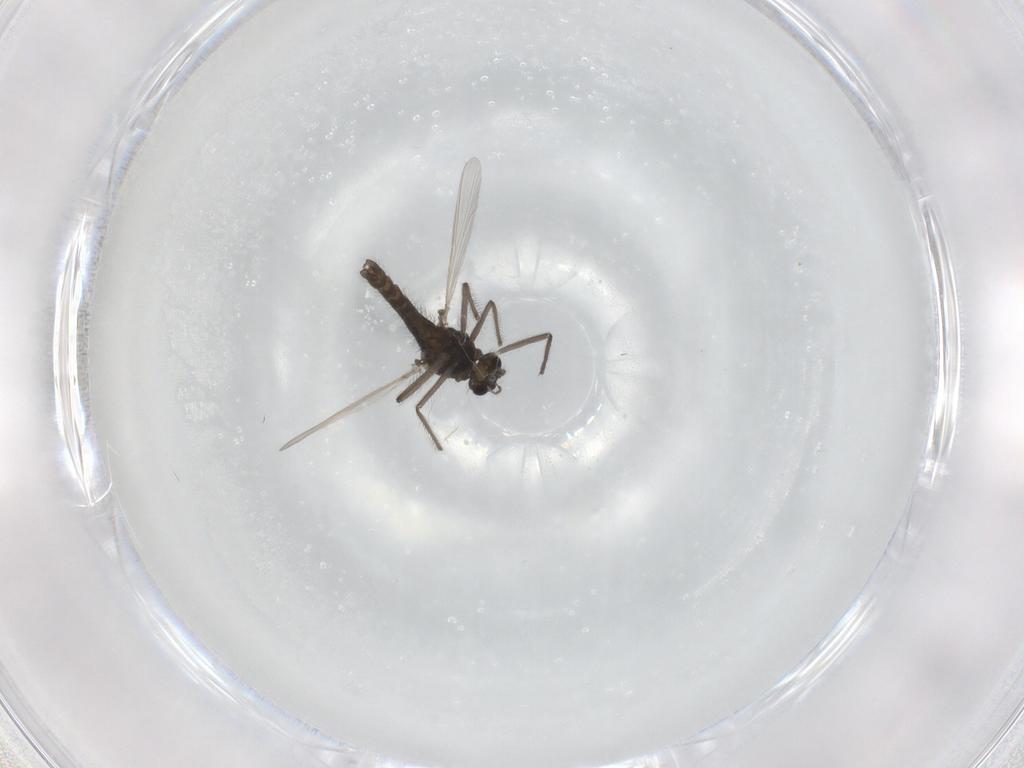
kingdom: Animalia
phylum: Arthropoda
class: Insecta
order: Diptera
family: Chironomidae
